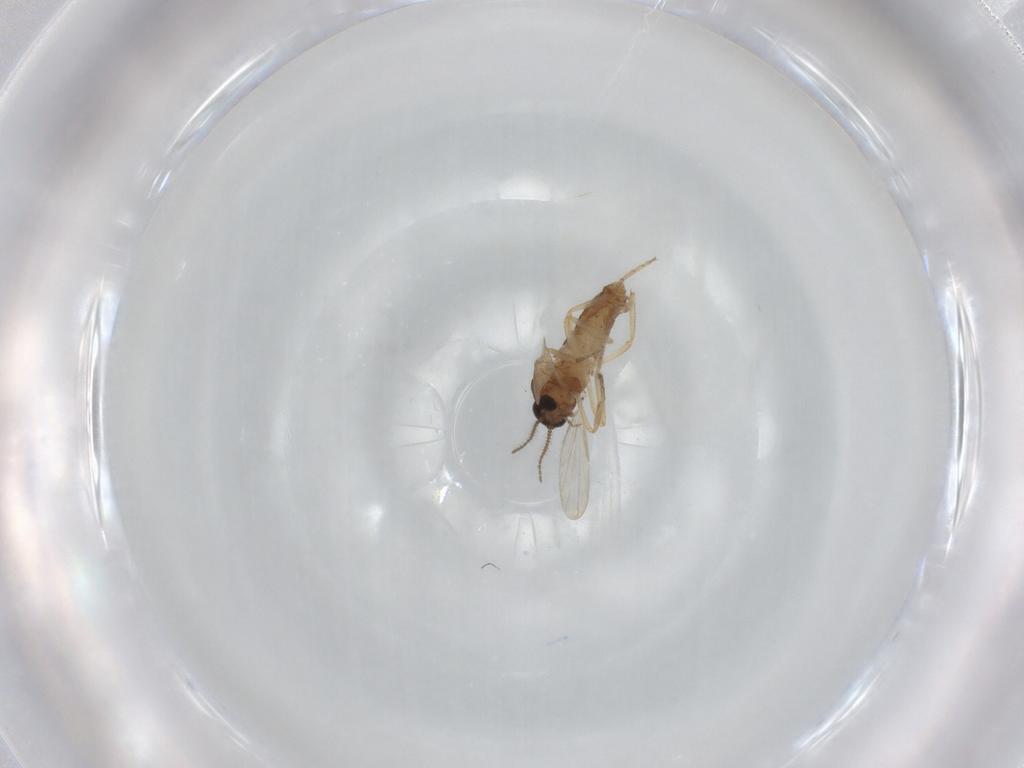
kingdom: Animalia
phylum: Arthropoda
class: Insecta
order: Diptera
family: Ceratopogonidae
